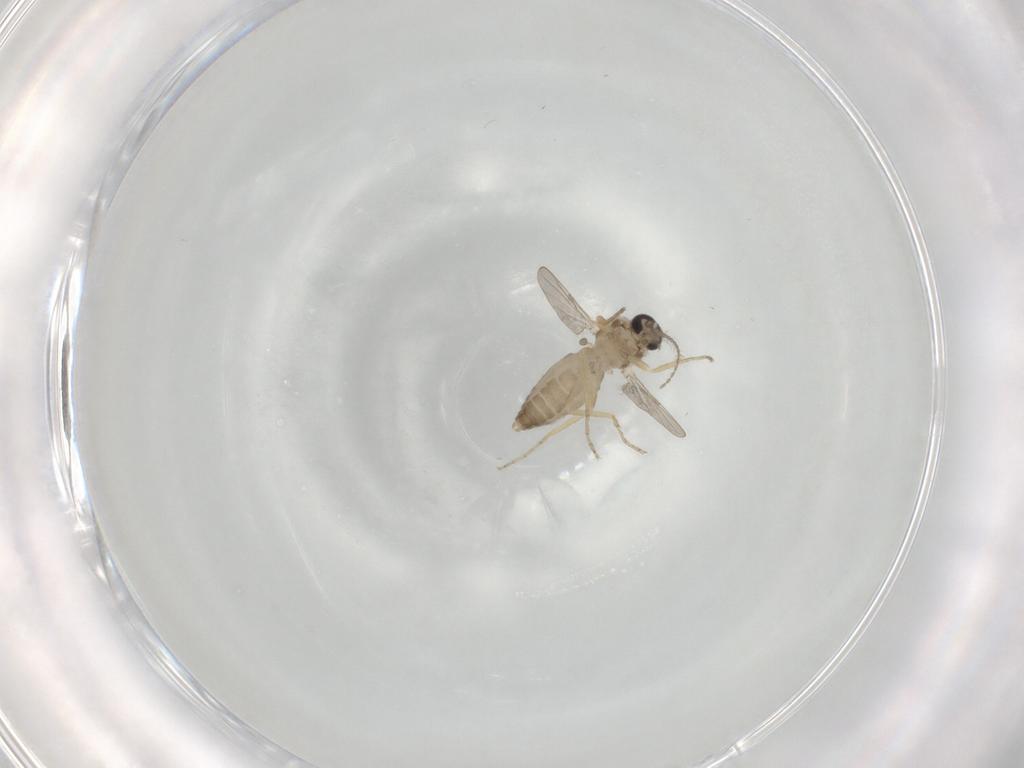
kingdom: Animalia
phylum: Arthropoda
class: Insecta
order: Diptera
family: Ceratopogonidae
